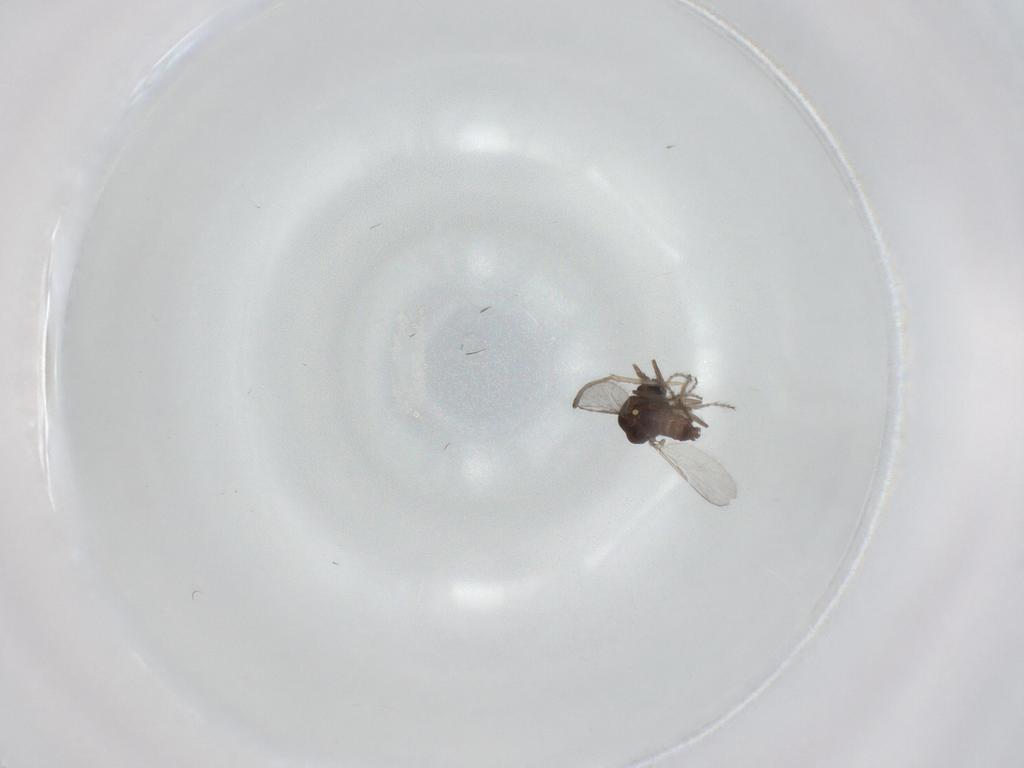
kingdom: Animalia
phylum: Arthropoda
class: Insecta
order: Diptera
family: Ceratopogonidae
